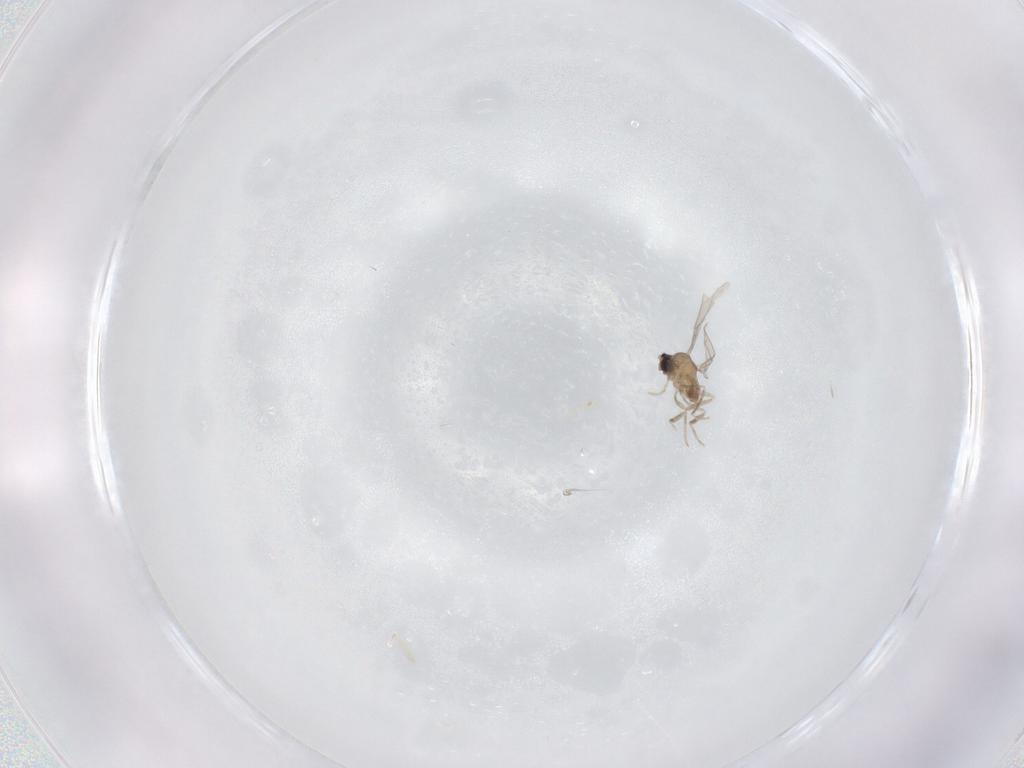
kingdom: Animalia
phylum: Arthropoda
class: Insecta
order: Diptera
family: Cecidomyiidae
